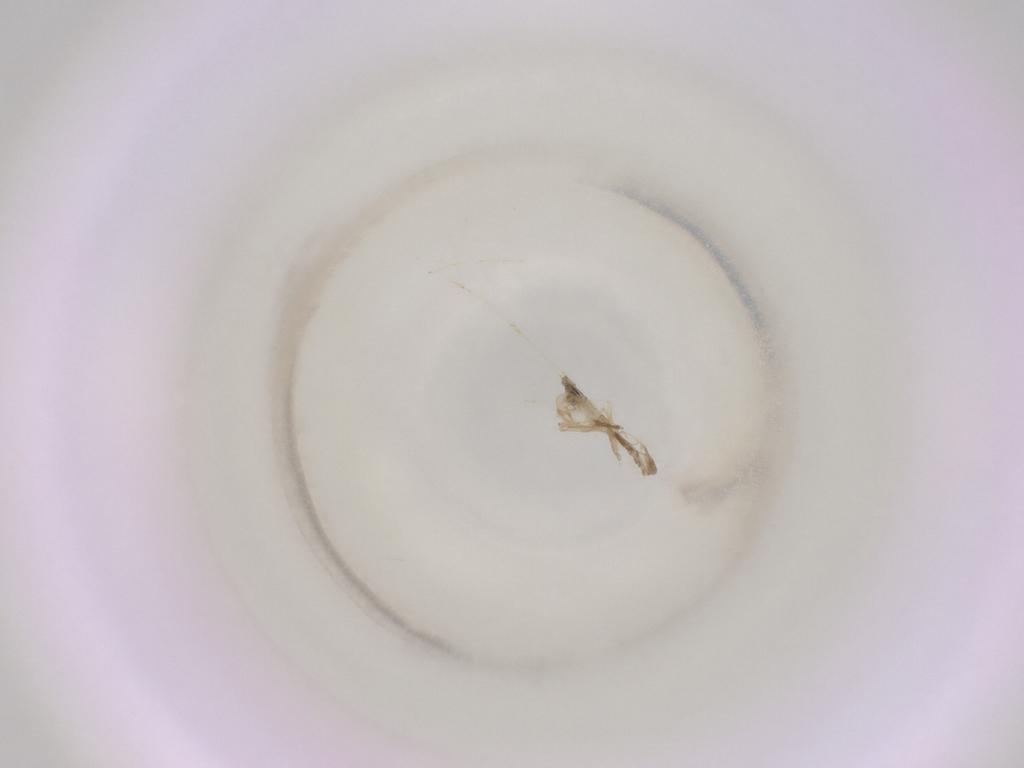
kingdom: Animalia
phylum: Arthropoda
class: Insecta
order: Diptera
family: Cecidomyiidae
